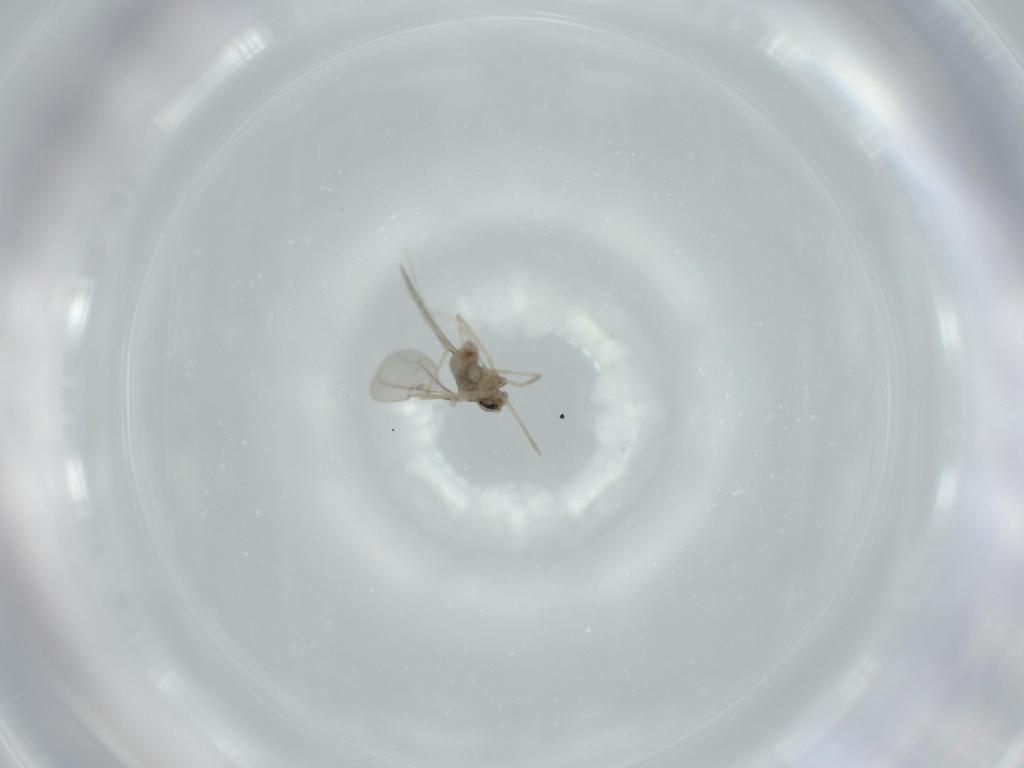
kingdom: Animalia
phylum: Arthropoda
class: Insecta
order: Diptera
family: Cecidomyiidae
